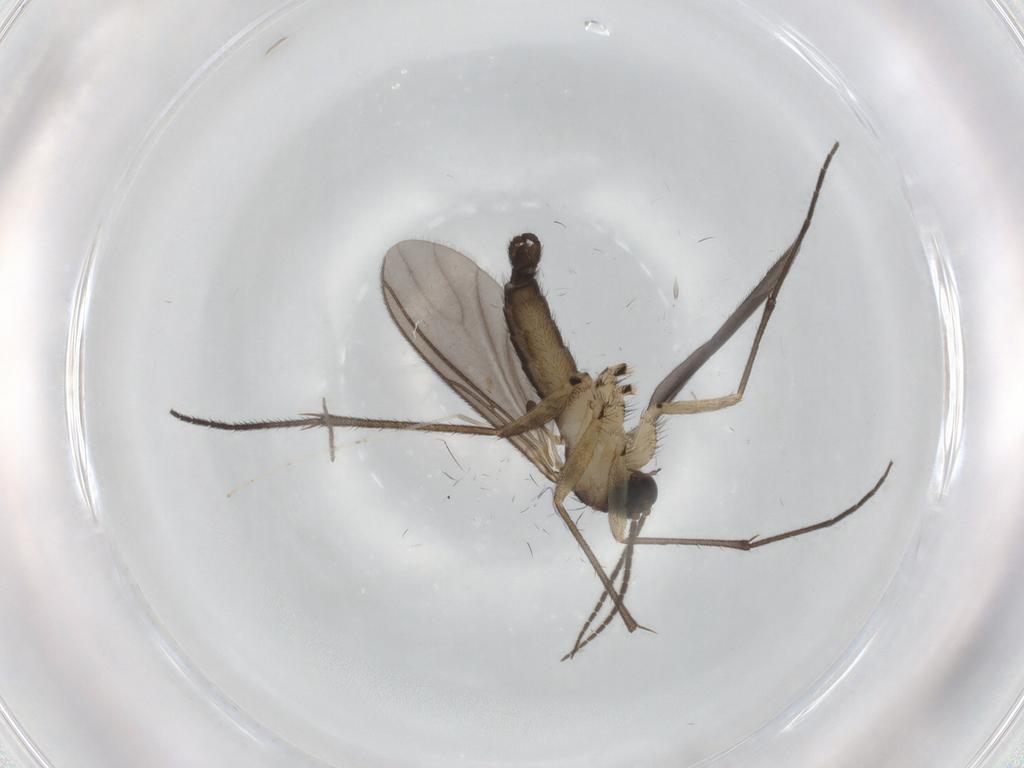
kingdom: Animalia
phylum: Arthropoda
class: Insecta
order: Diptera
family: Sciaridae
